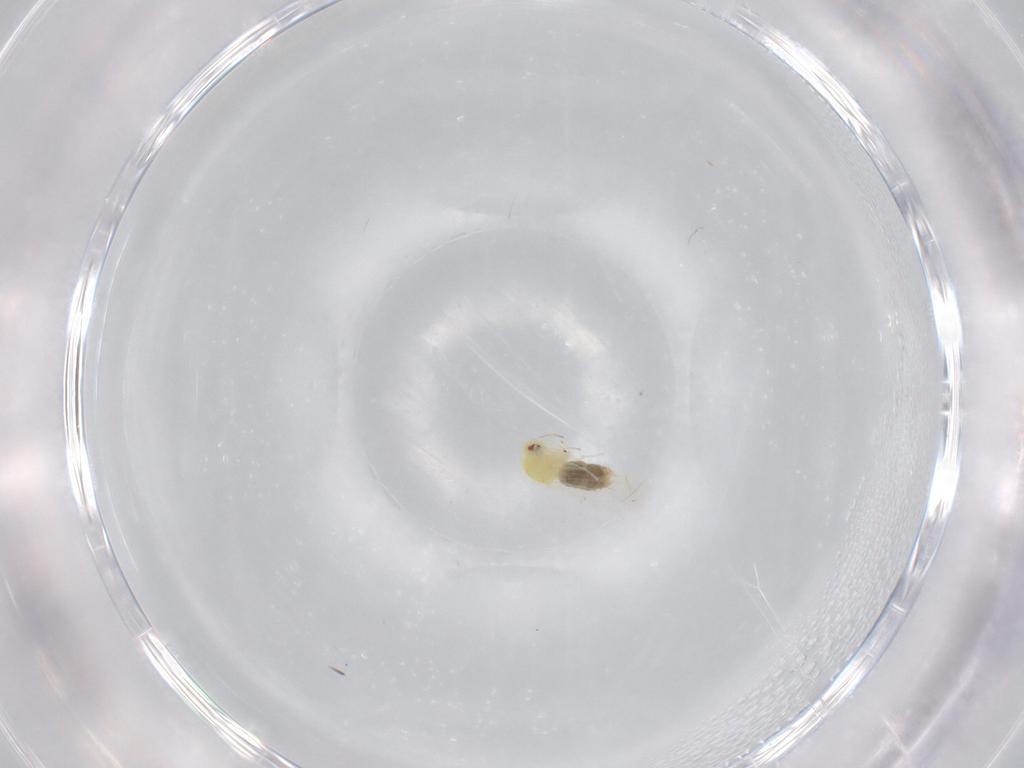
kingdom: Animalia
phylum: Arthropoda
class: Insecta
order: Hemiptera
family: Aleyrodidae
